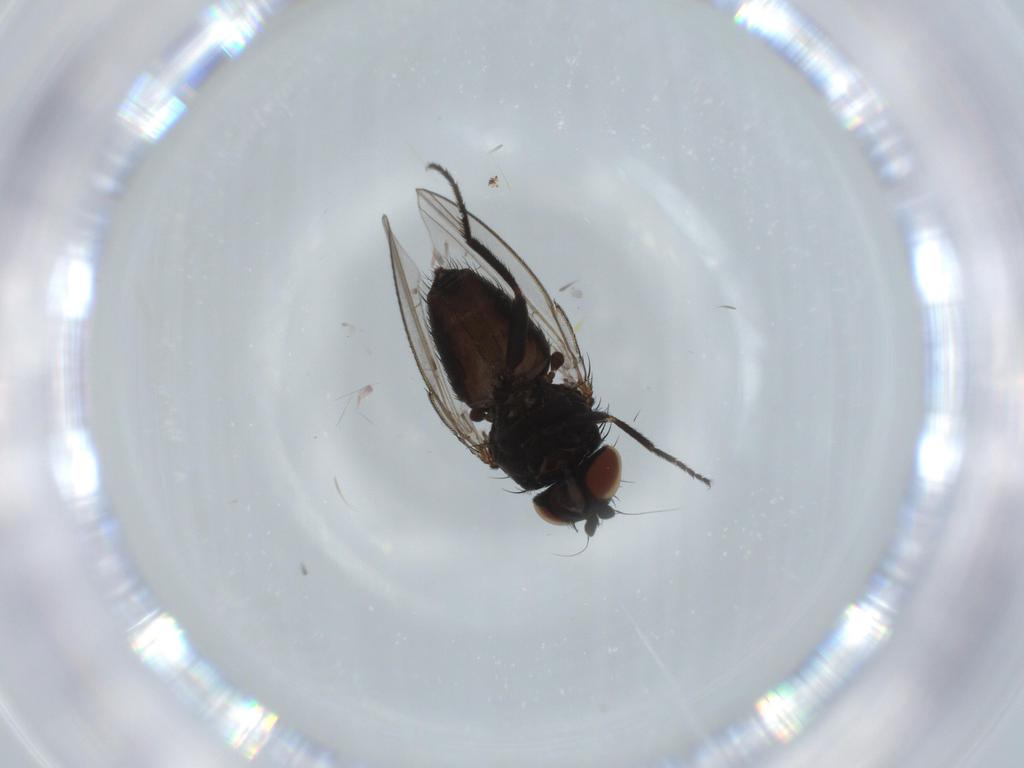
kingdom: Animalia
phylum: Arthropoda
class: Insecta
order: Diptera
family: Milichiidae
